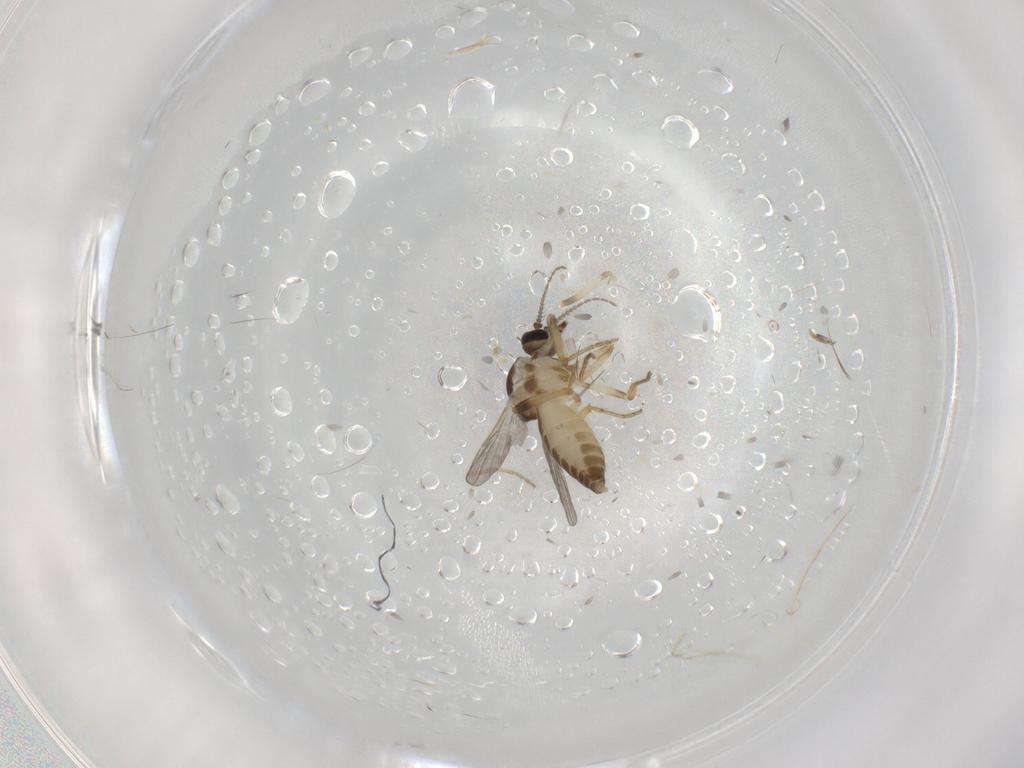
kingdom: Animalia
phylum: Arthropoda
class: Insecta
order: Diptera
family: Ceratopogonidae
